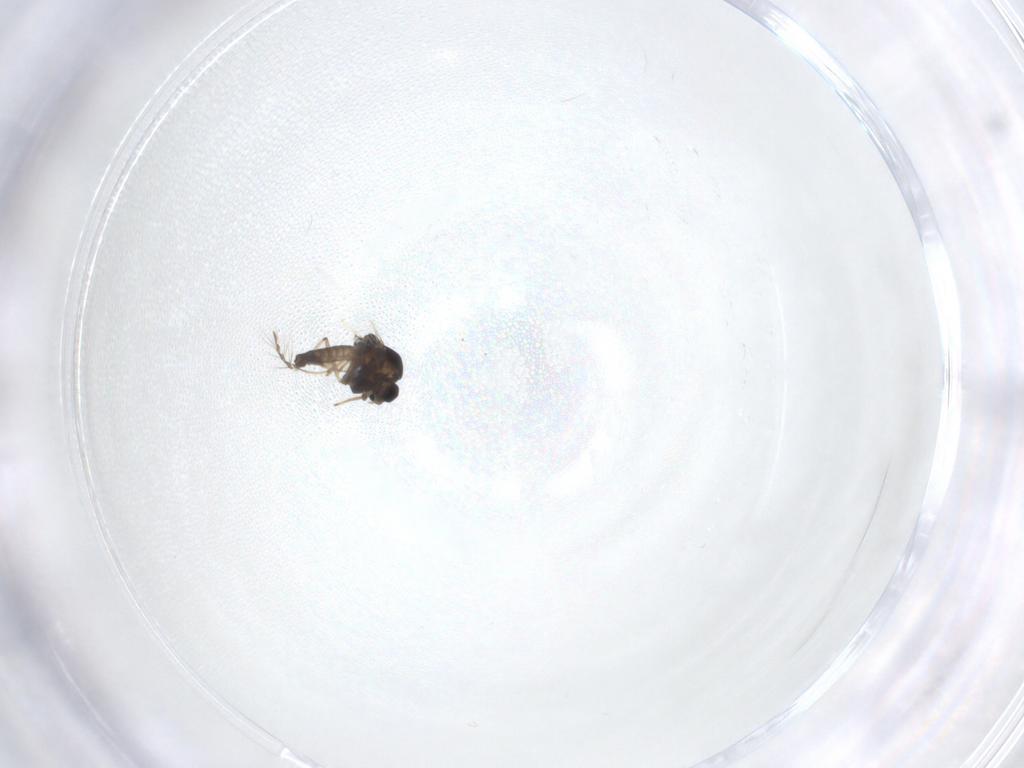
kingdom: Animalia
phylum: Arthropoda
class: Insecta
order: Diptera
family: Chironomidae
